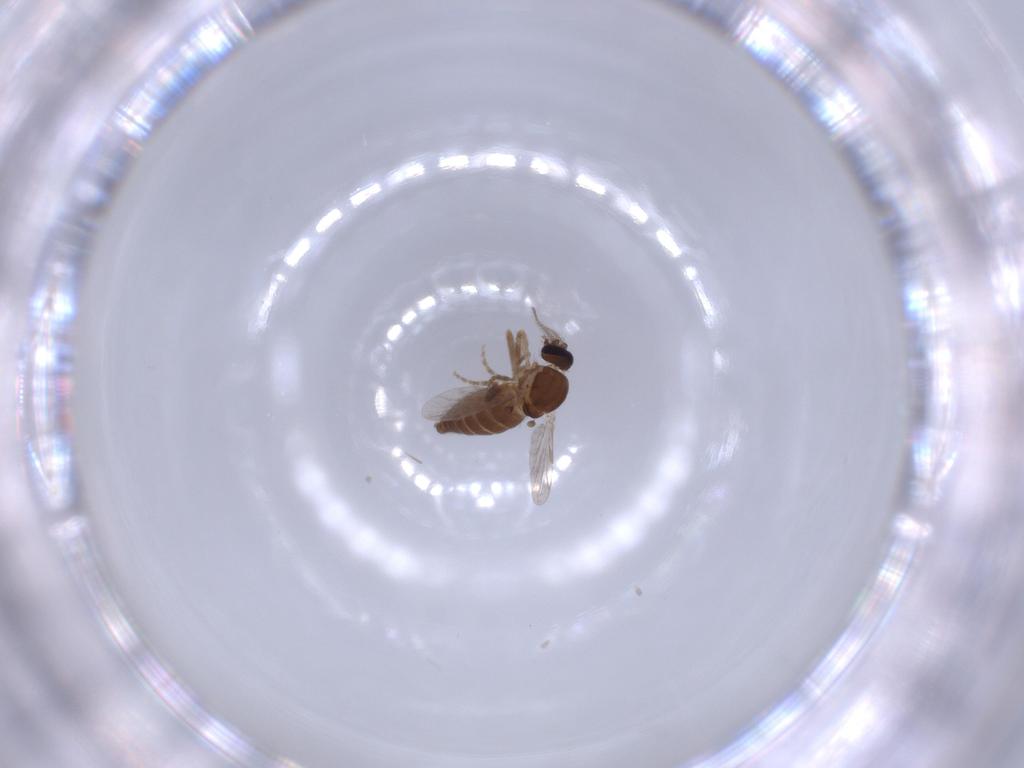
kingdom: Animalia
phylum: Arthropoda
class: Insecta
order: Diptera
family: Ceratopogonidae
